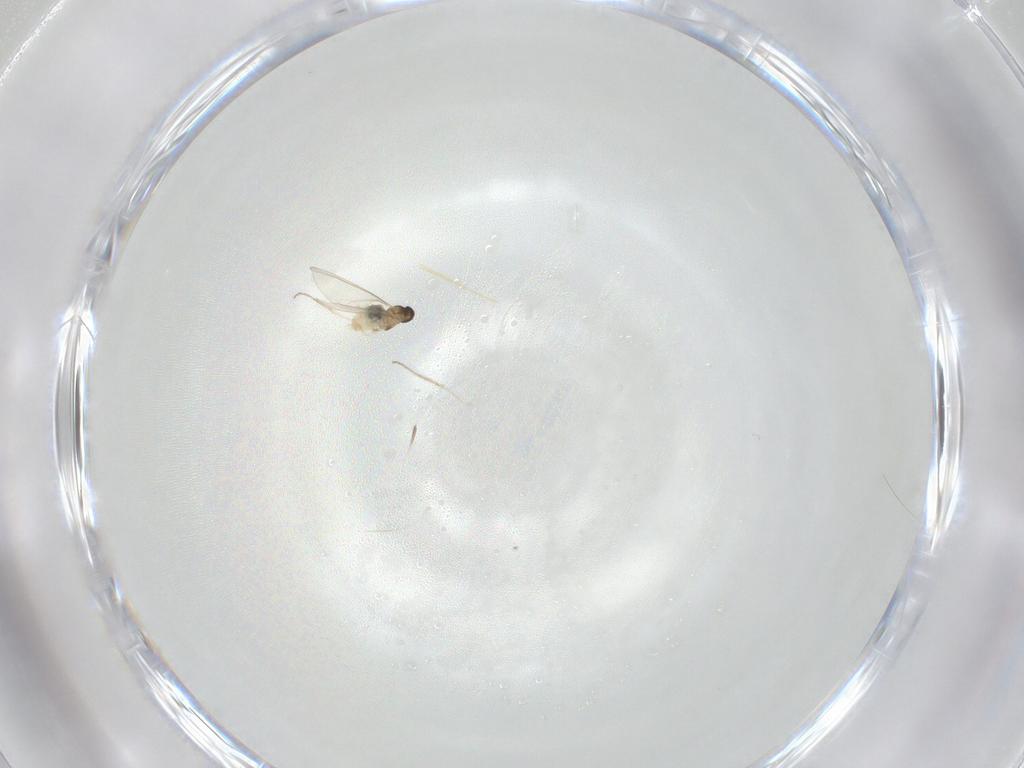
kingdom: Animalia
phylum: Arthropoda
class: Insecta
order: Diptera
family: Cecidomyiidae
